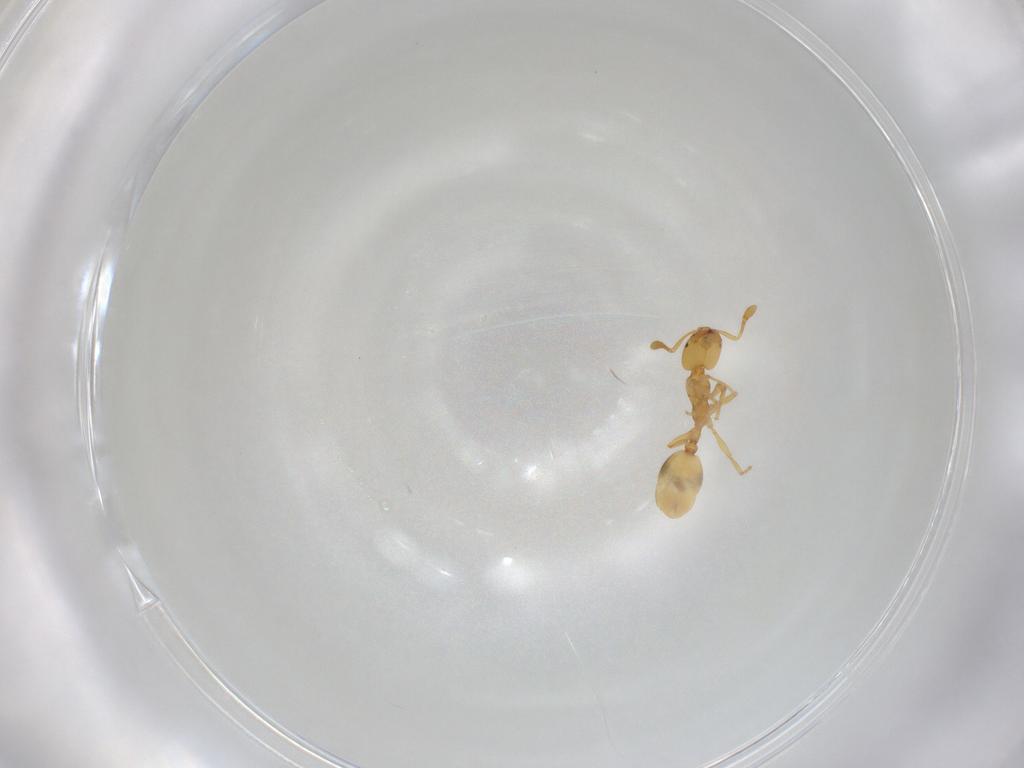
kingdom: Animalia
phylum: Arthropoda
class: Insecta
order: Hymenoptera
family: Formicidae
